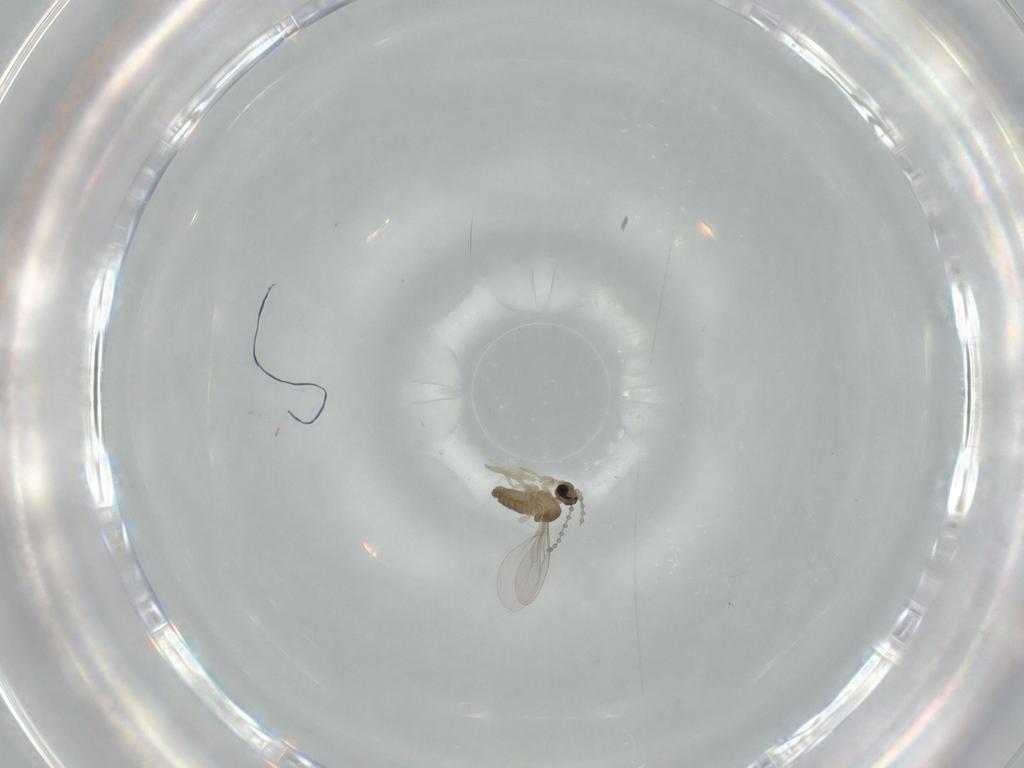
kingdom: Animalia
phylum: Arthropoda
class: Insecta
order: Diptera
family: Cecidomyiidae
